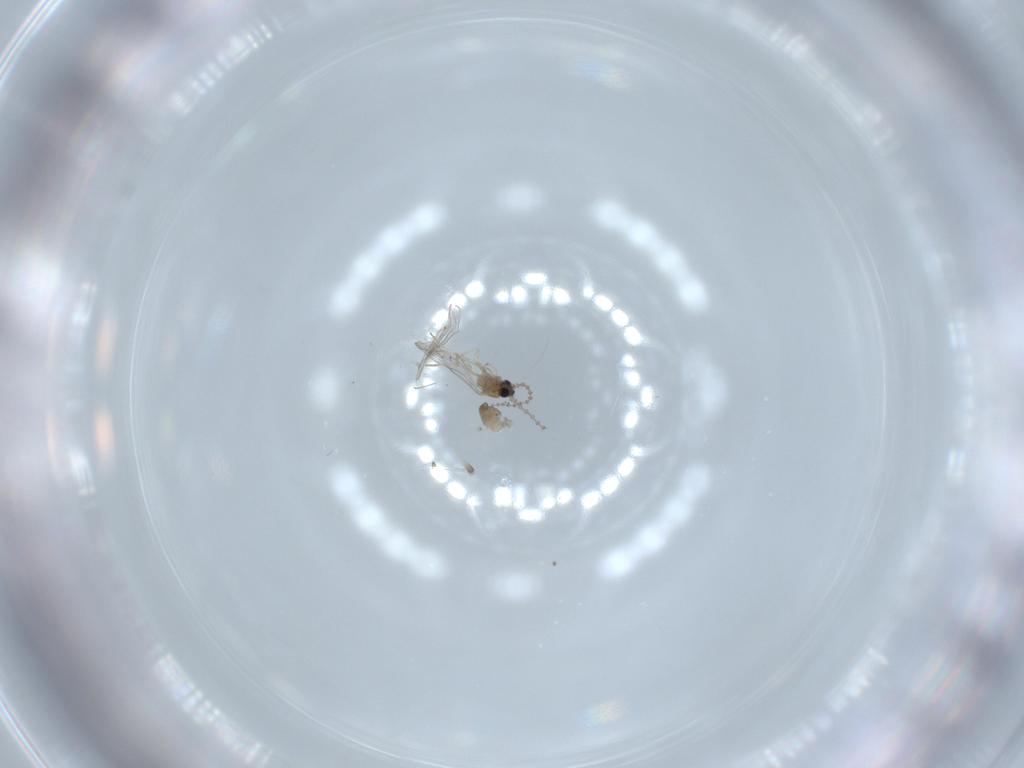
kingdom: Animalia
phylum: Arthropoda
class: Insecta
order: Diptera
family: Cecidomyiidae
